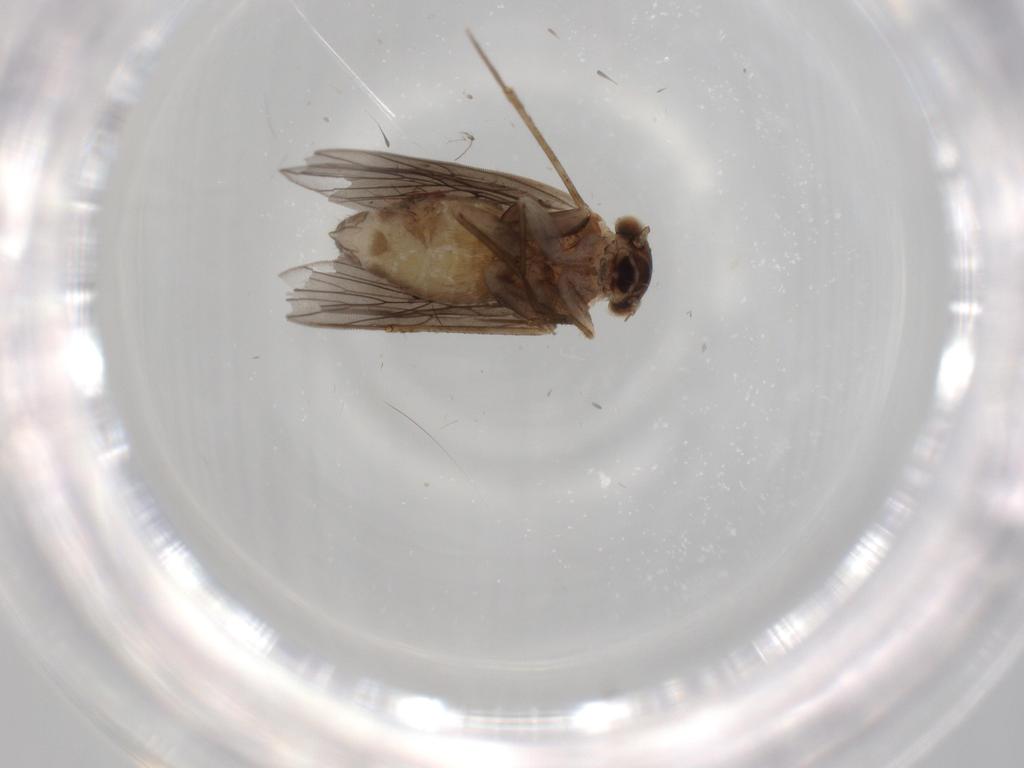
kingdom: Animalia
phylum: Arthropoda
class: Insecta
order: Psocodea
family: Lepidopsocidae
